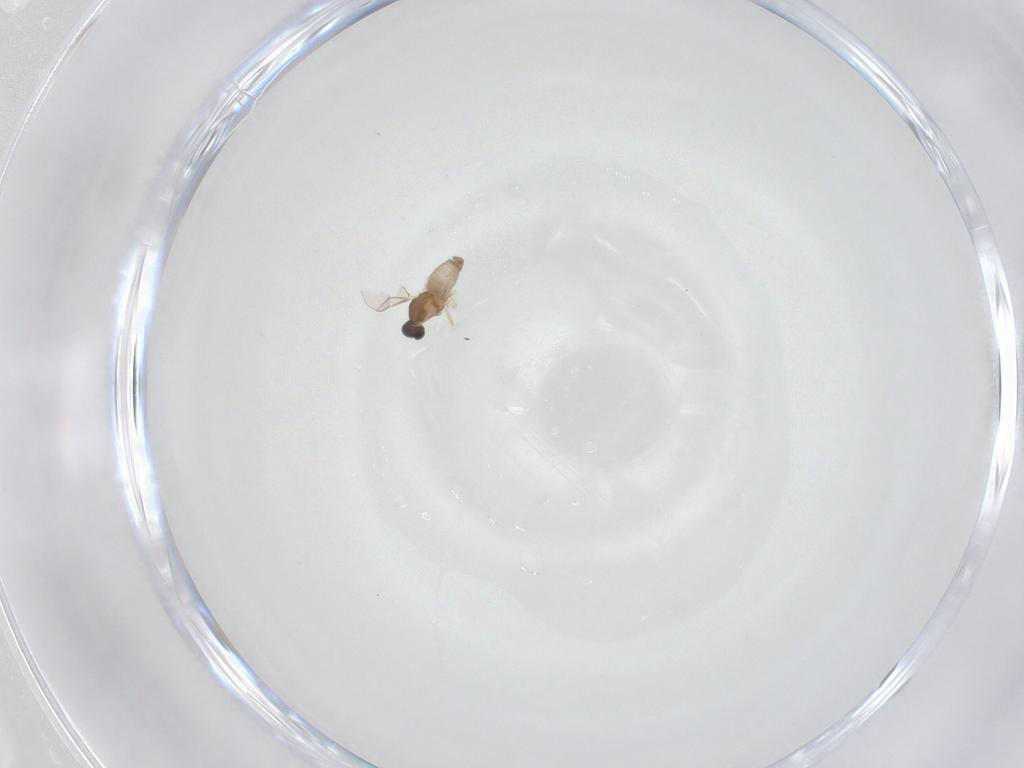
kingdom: Animalia
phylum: Arthropoda
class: Insecta
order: Diptera
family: Cecidomyiidae
